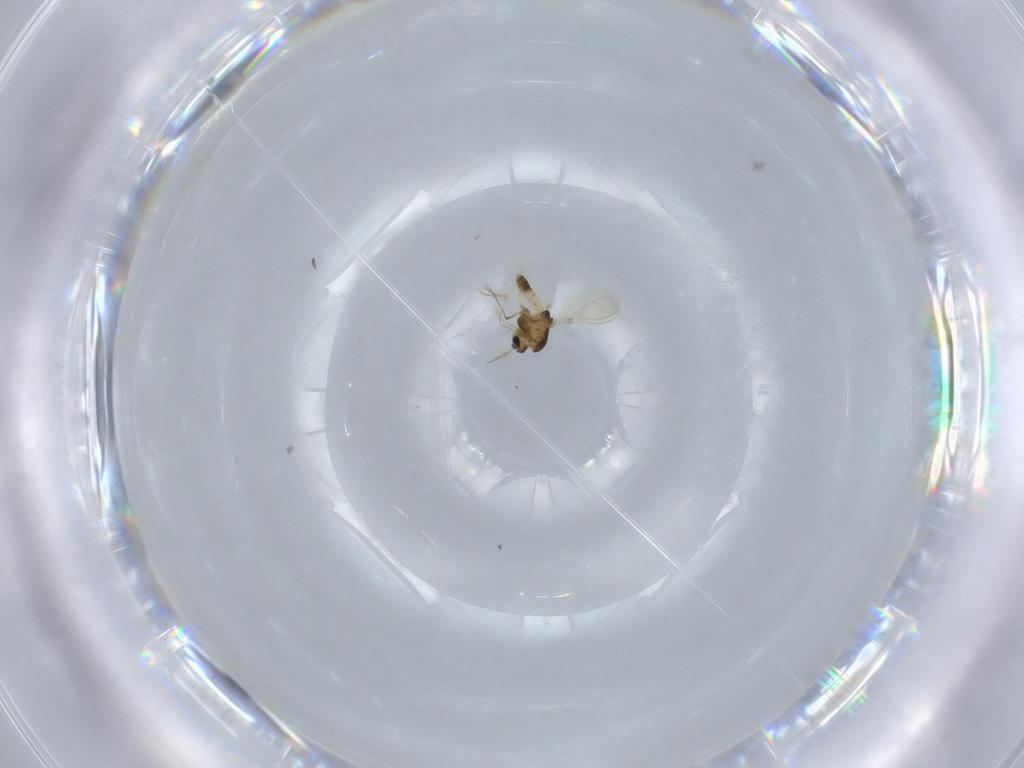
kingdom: Animalia
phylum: Arthropoda
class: Insecta
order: Diptera
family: Chironomidae
